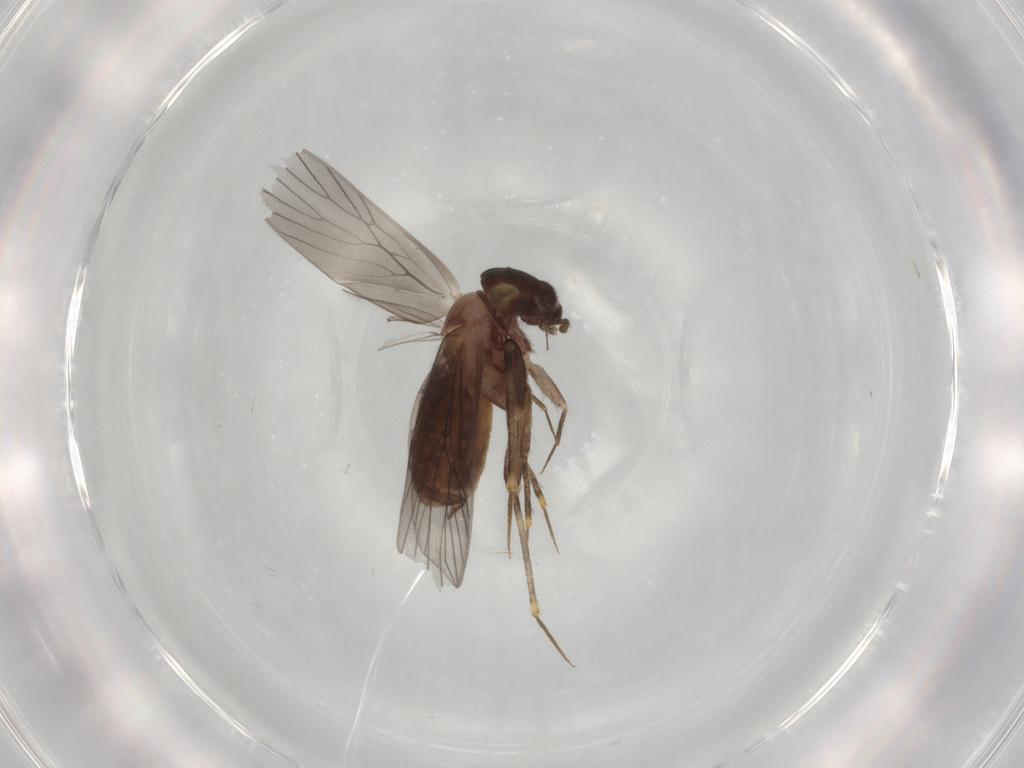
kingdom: Animalia
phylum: Arthropoda
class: Insecta
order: Psocodea
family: Lepidopsocidae
